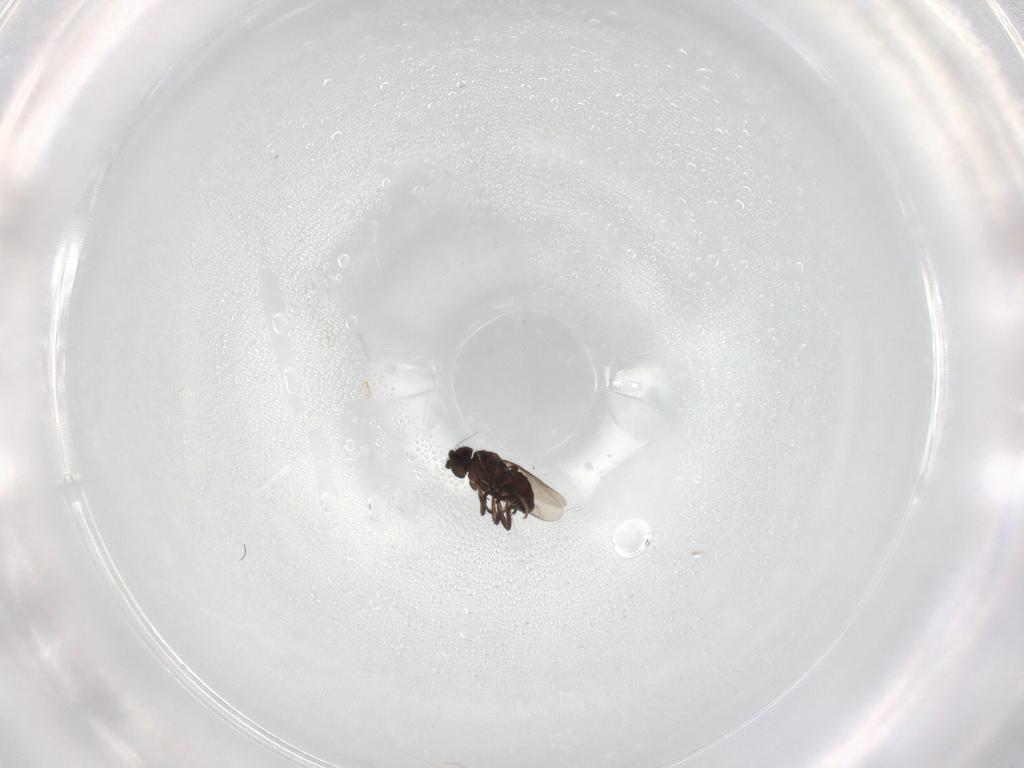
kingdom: Animalia
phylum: Arthropoda
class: Insecta
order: Diptera
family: Sphaeroceridae
